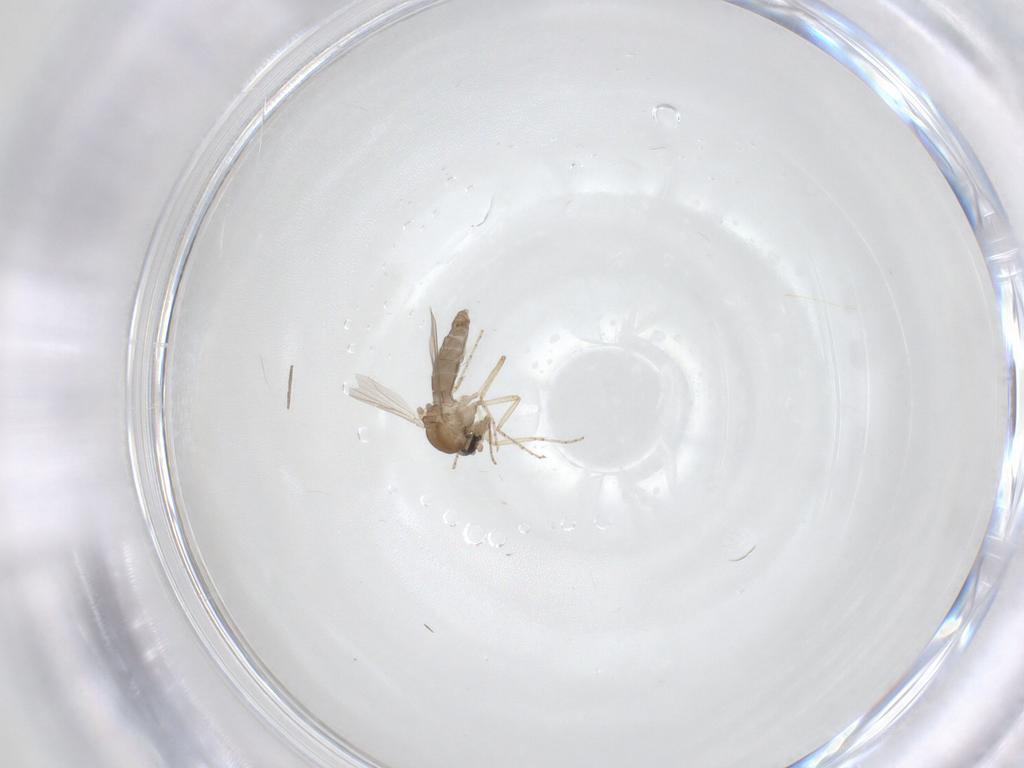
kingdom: Animalia
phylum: Arthropoda
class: Insecta
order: Diptera
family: Ceratopogonidae
